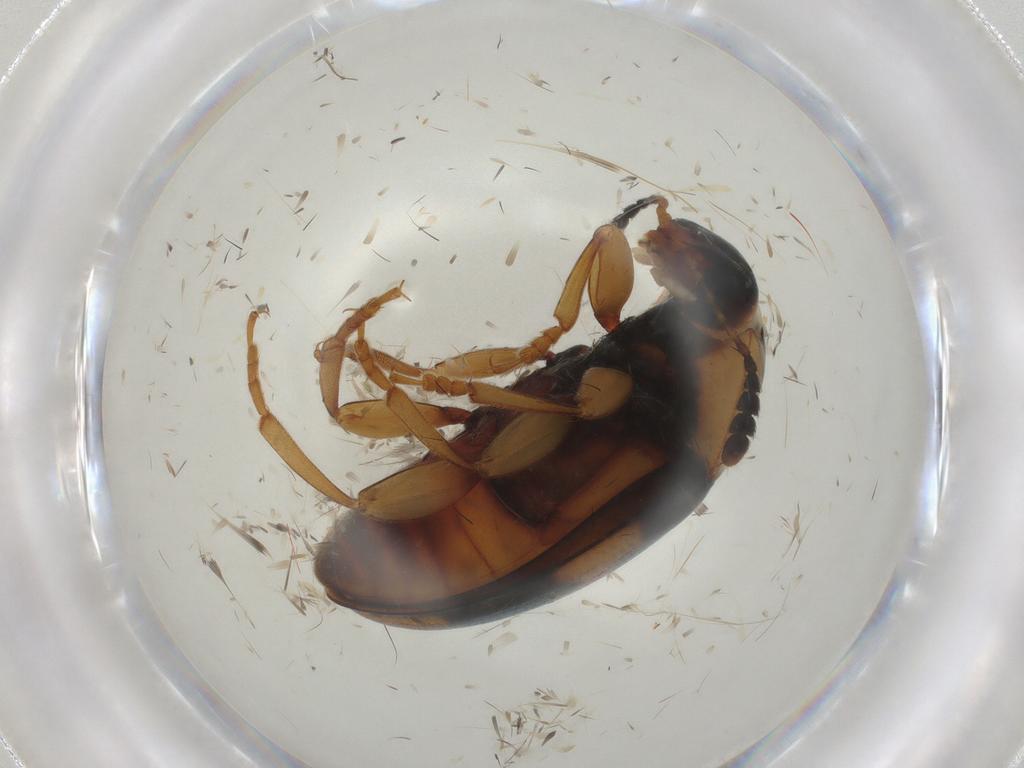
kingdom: Animalia
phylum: Arthropoda
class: Insecta
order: Coleoptera
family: Erotylidae
